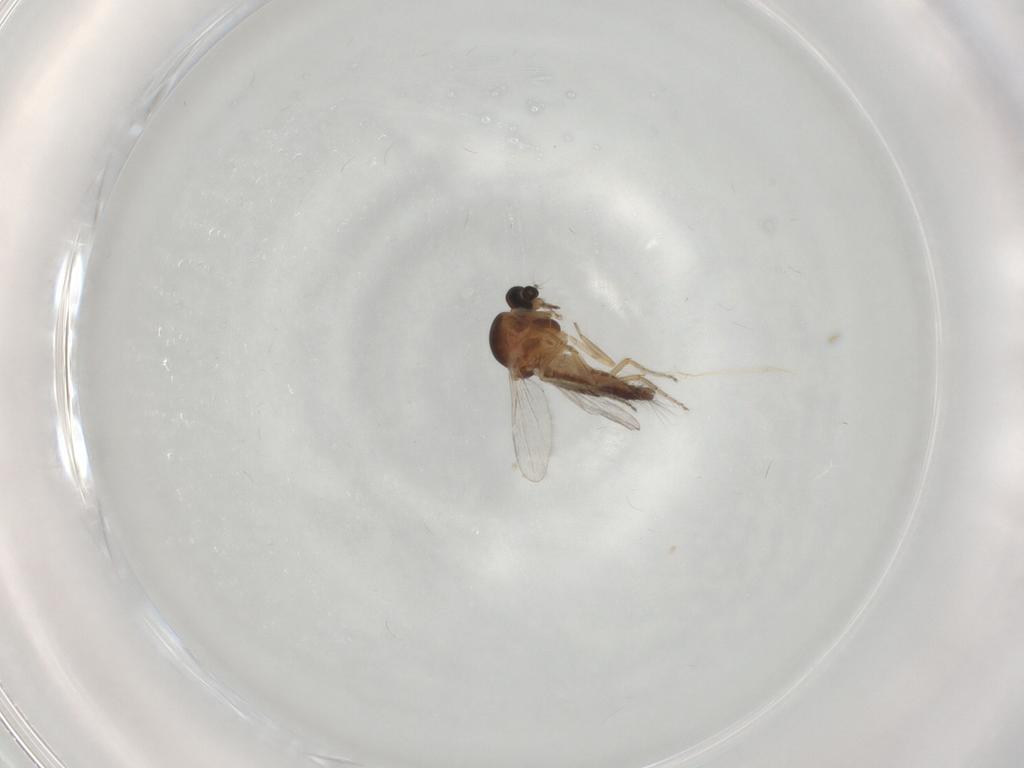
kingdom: Animalia
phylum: Arthropoda
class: Insecta
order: Diptera
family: Ceratopogonidae
